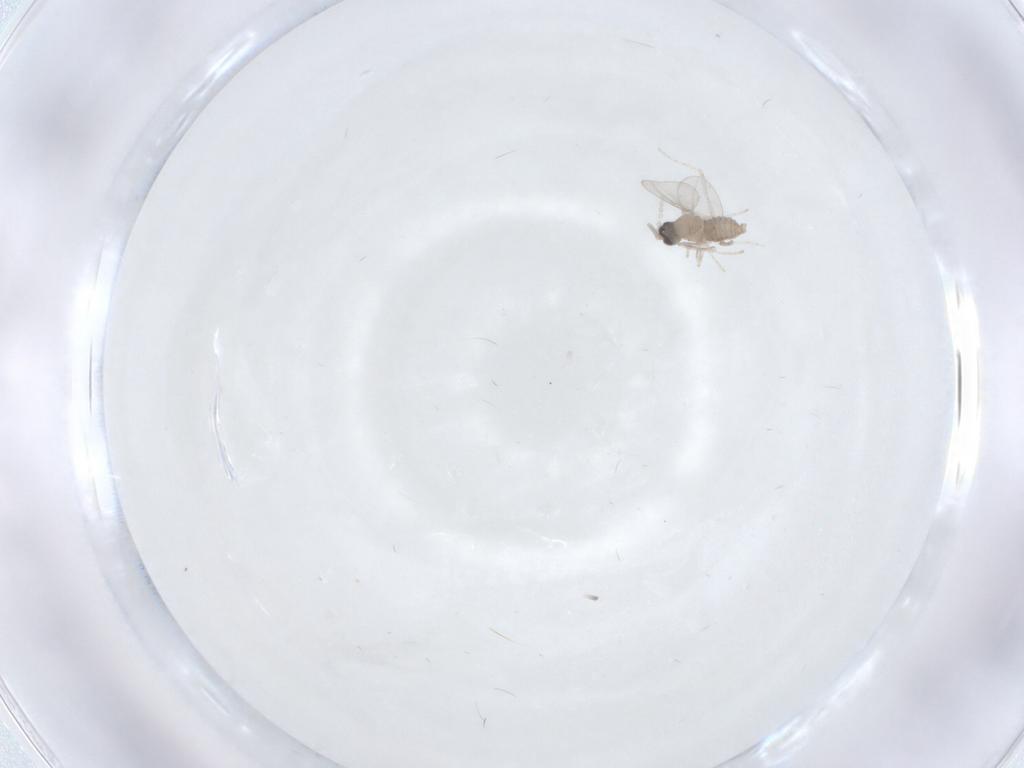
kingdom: Animalia
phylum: Arthropoda
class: Insecta
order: Diptera
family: Cecidomyiidae
